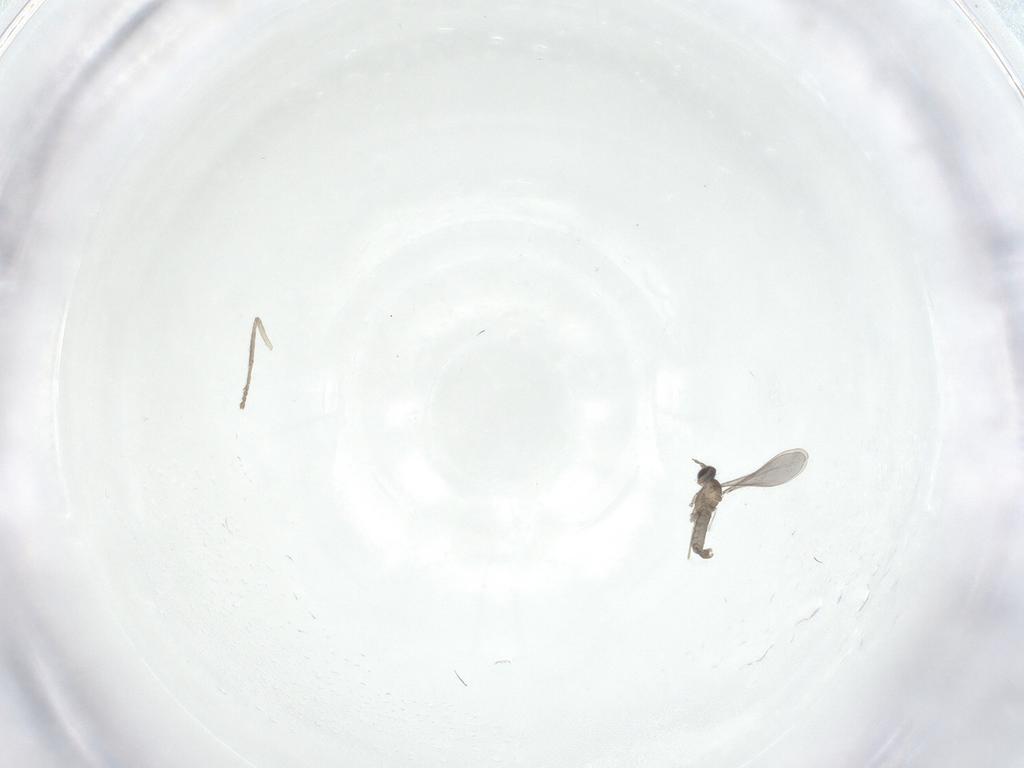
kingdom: Animalia
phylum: Arthropoda
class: Insecta
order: Diptera
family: Cecidomyiidae
